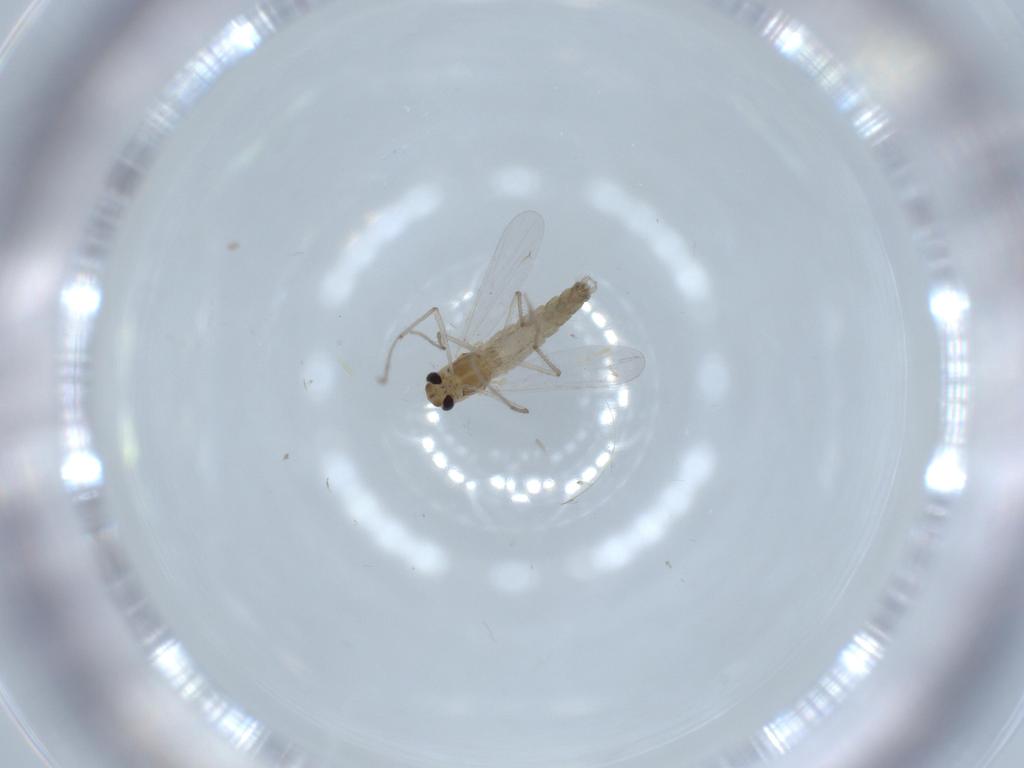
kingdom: Animalia
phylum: Arthropoda
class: Insecta
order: Diptera
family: Chironomidae
